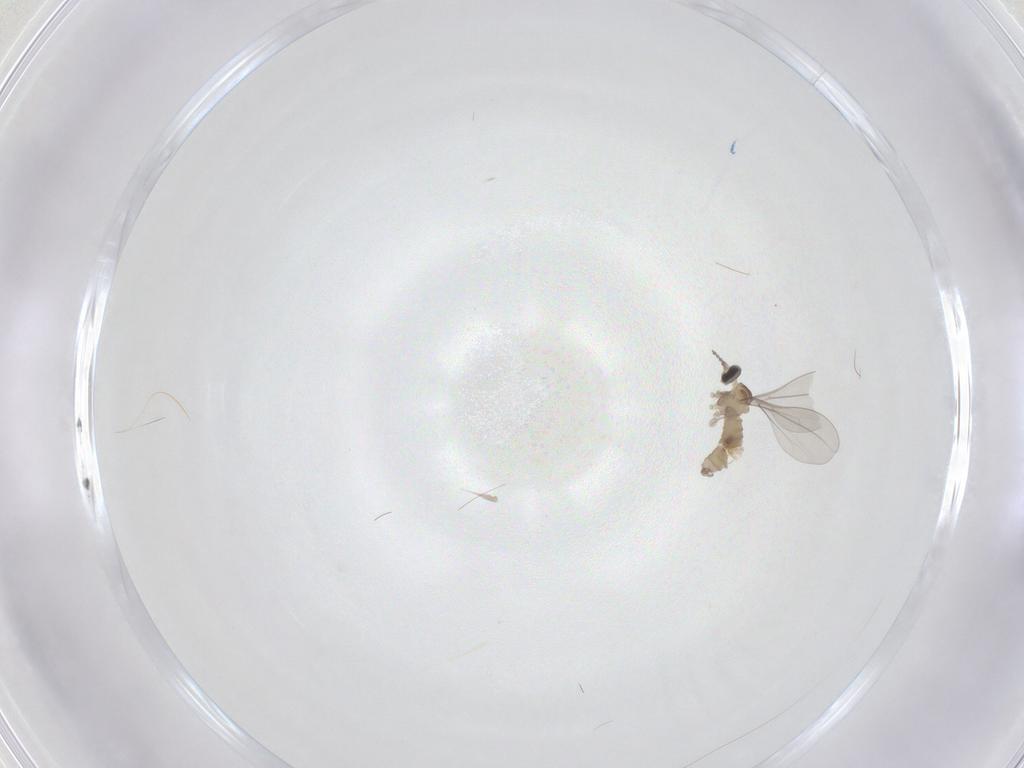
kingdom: Animalia
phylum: Arthropoda
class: Insecta
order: Diptera
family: Chironomidae
